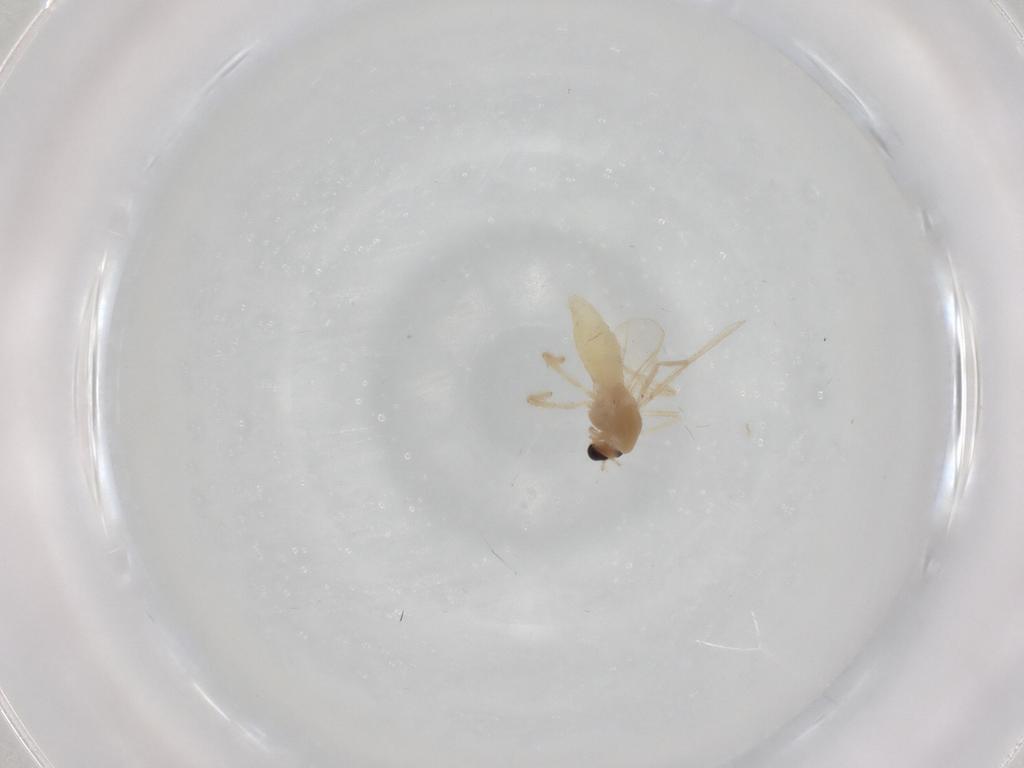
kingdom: Animalia
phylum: Arthropoda
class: Insecta
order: Diptera
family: Chironomidae
